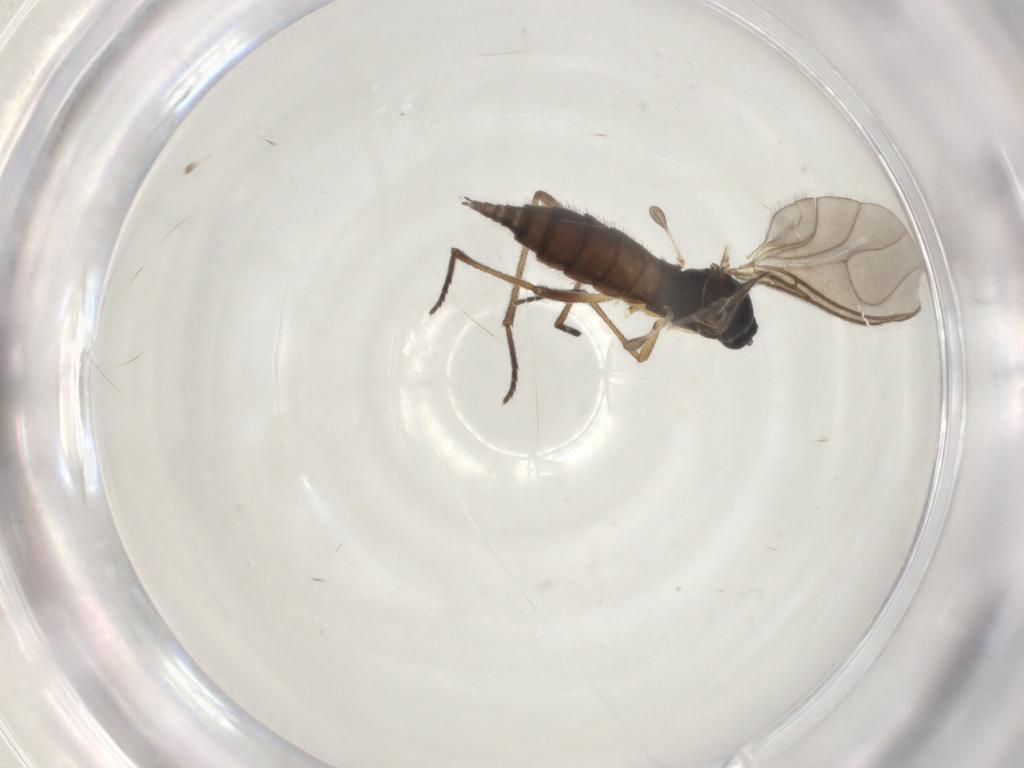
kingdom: Animalia
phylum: Arthropoda
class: Insecta
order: Diptera
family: Sciaridae
